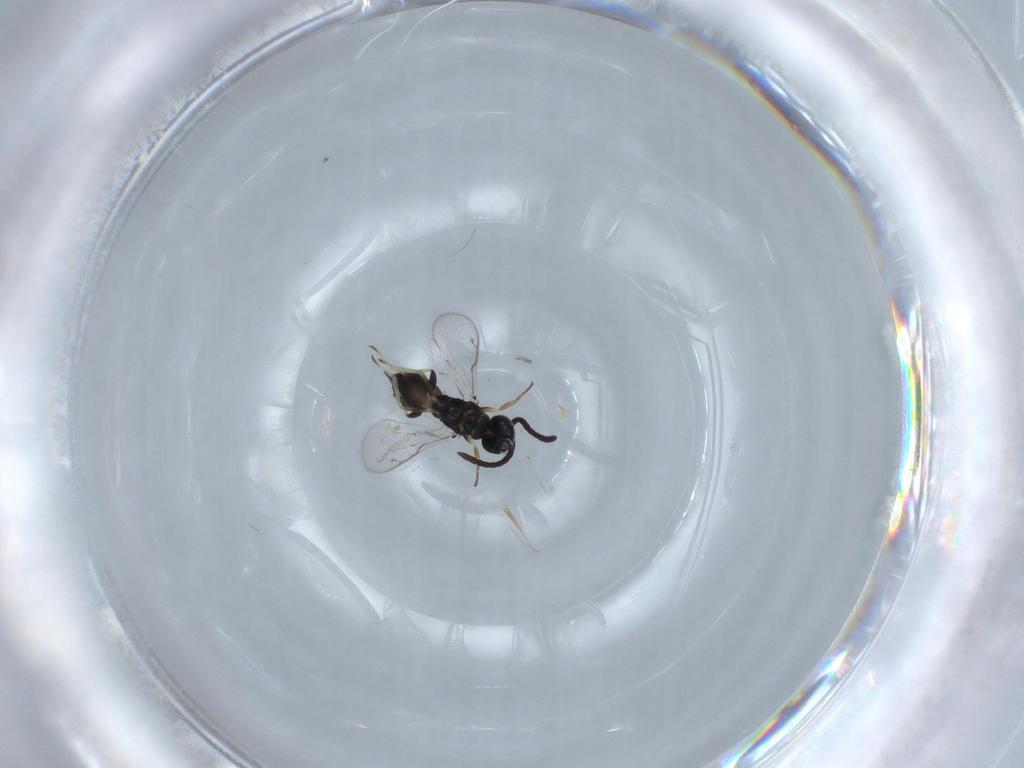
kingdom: Animalia
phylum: Arthropoda
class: Insecta
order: Hymenoptera
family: Eupelmidae
